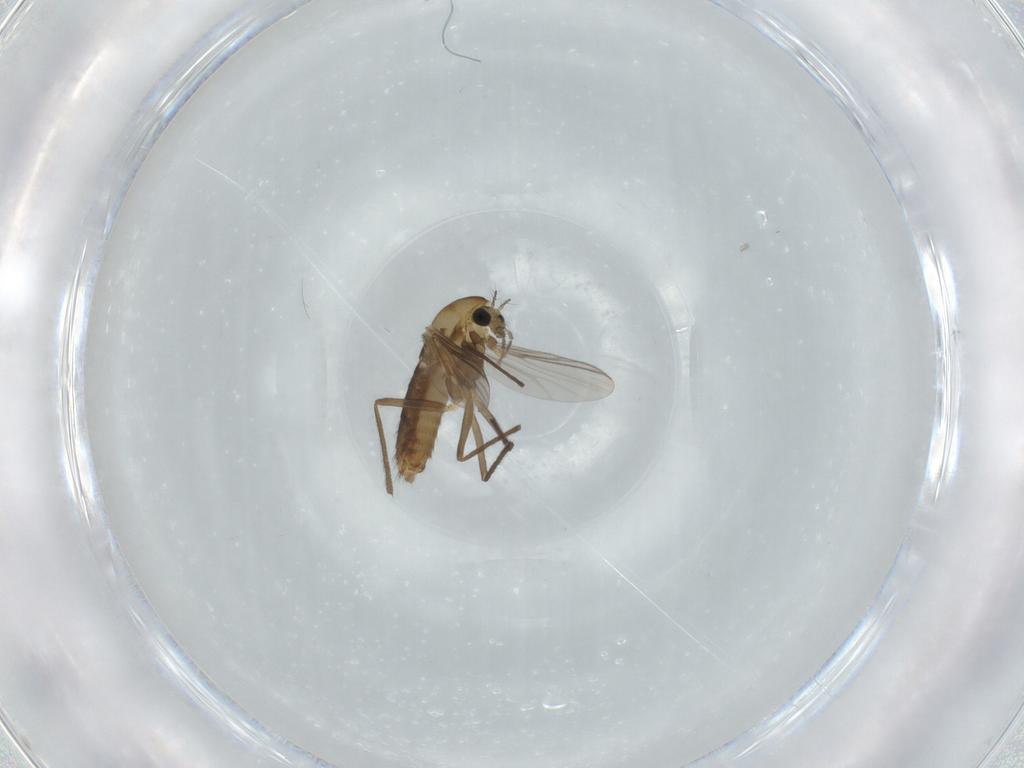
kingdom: Animalia
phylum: Arthropoda
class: Insecta
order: Diptera
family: Chironomidae
